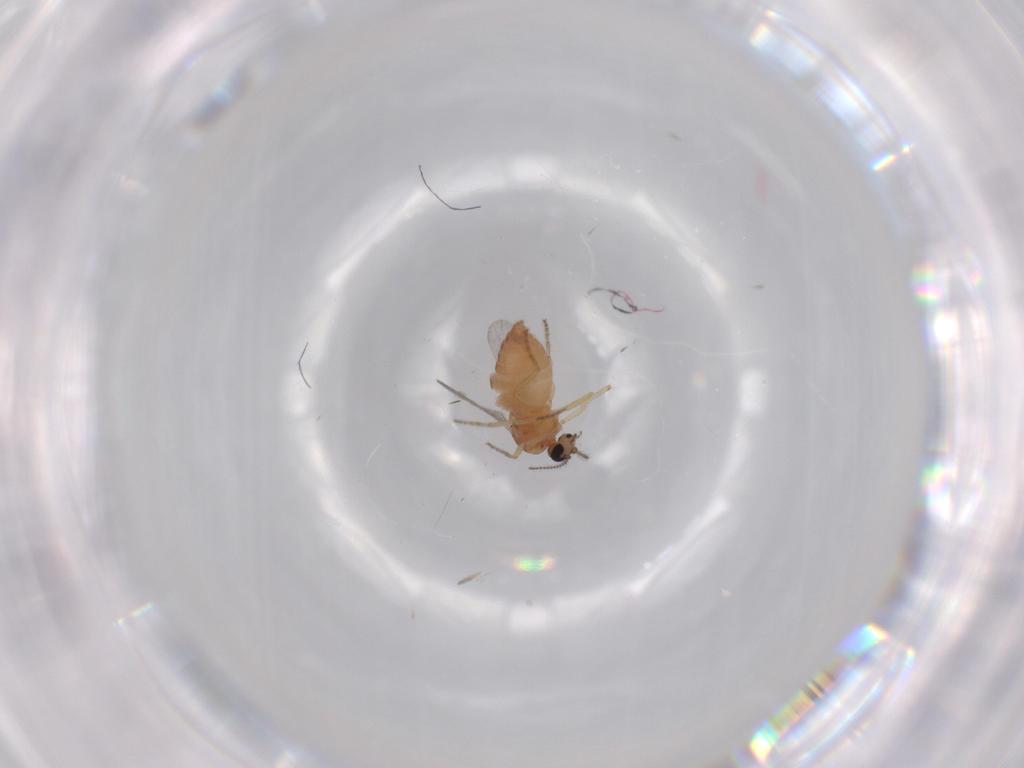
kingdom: Animalia
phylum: Arthropoda
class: Insecta
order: Diptera
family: Ceratopogonidae
